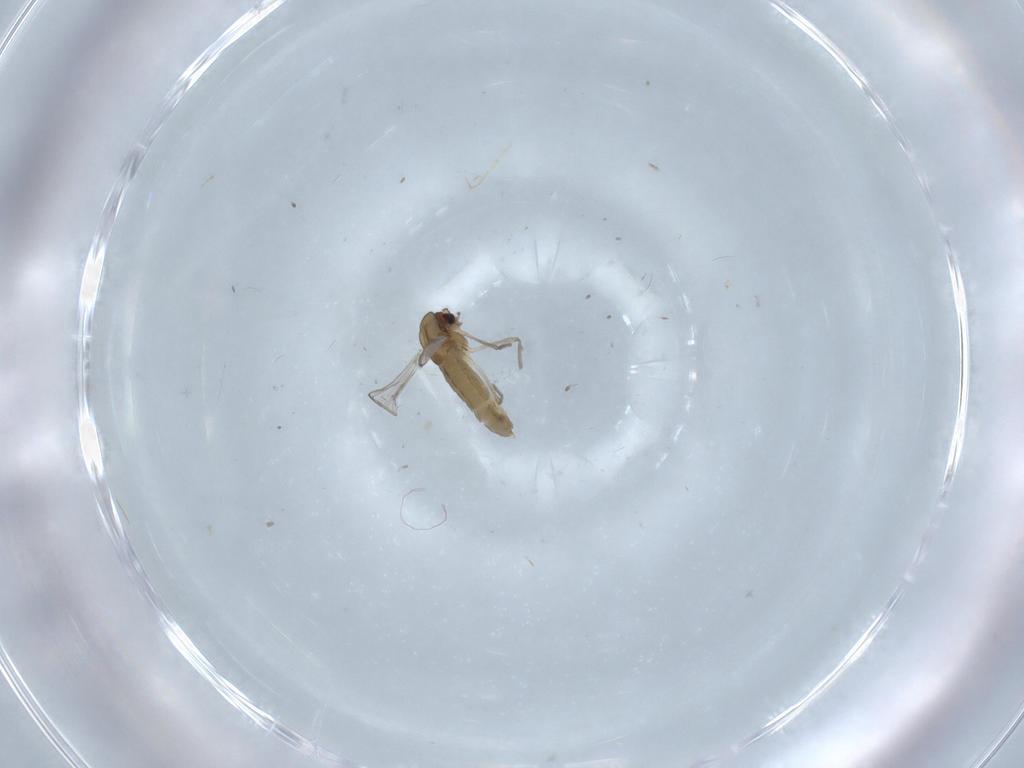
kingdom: Animalia
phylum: Arthropoda
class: Insecta
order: Diptera
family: Chironomidae
